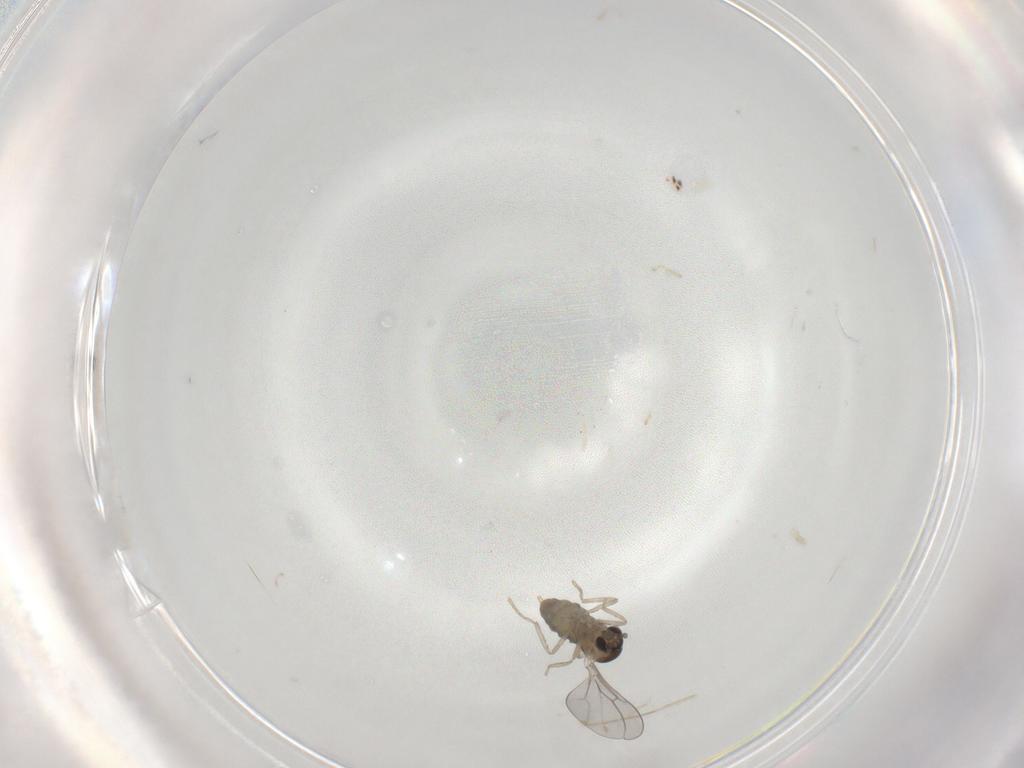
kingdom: Animalia
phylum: Arthropoda
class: Insecta
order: Diptera
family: Cecidomyiidae
